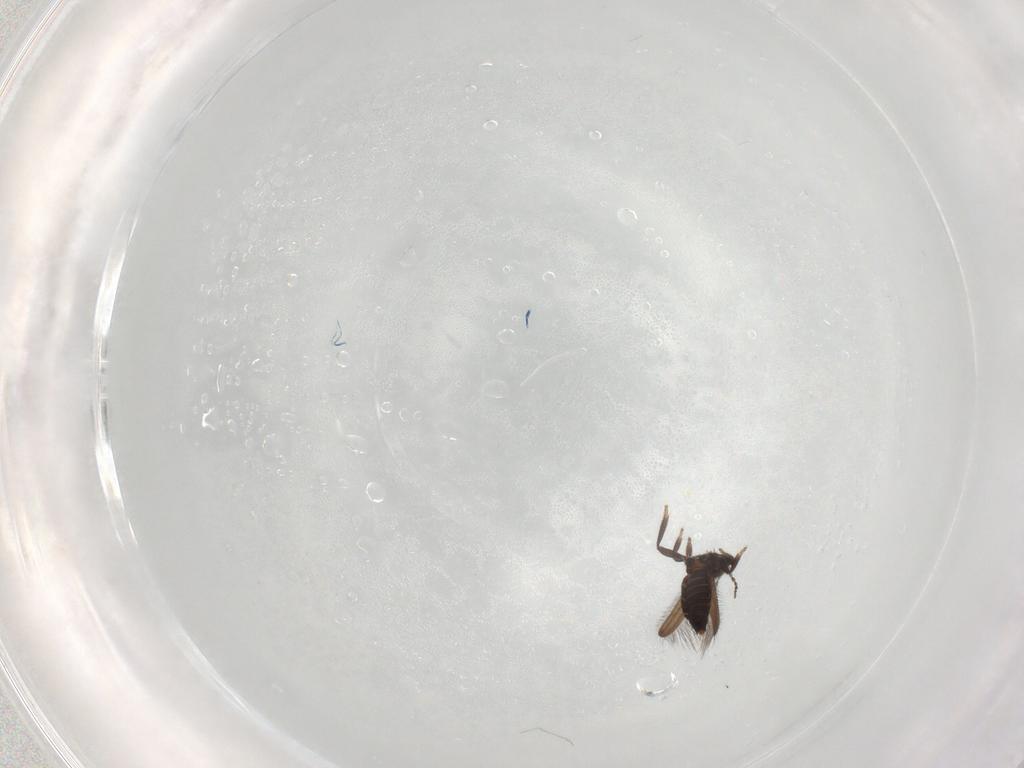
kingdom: Animalia
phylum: Arthropoda
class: Insecta
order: Thysanoptera
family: Melanthripidae
